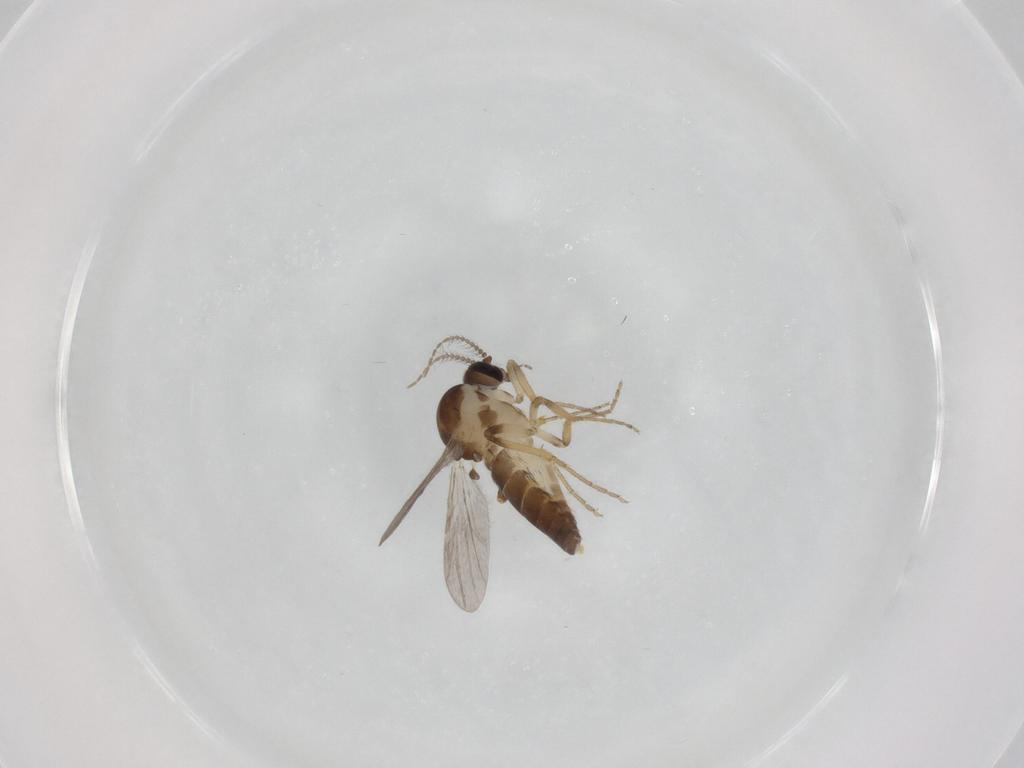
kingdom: Animalia
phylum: Arthropoda
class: Insecta
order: Diptera
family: Ceratopogonidae
